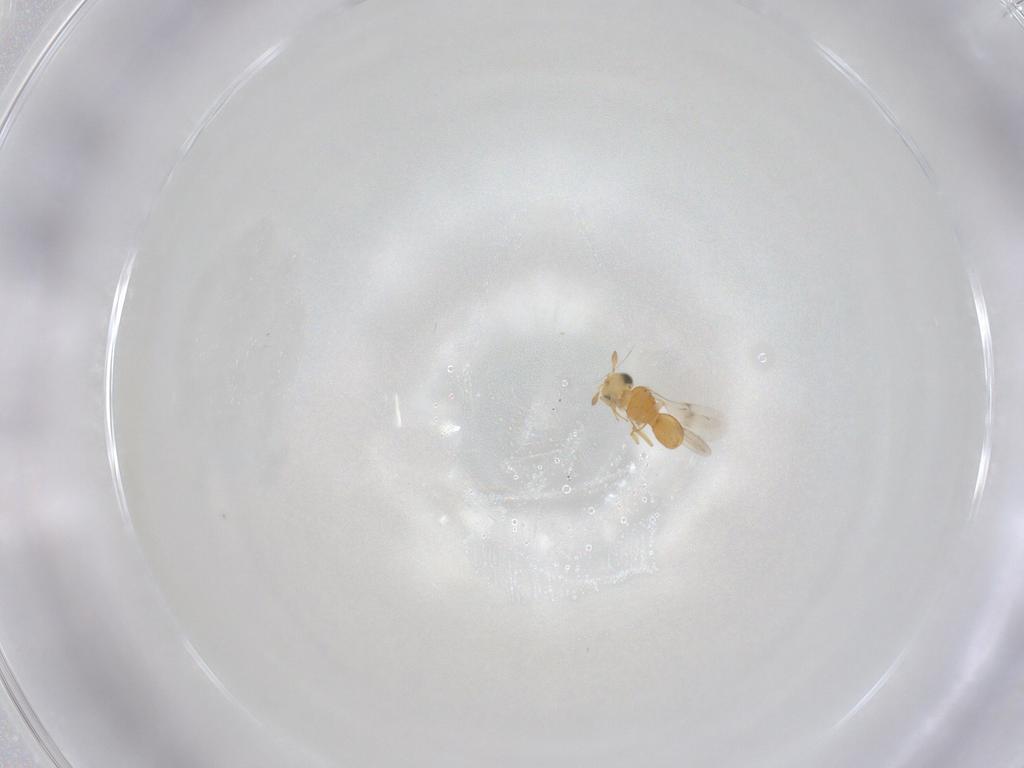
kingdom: Animalia
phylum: Arthropoda
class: Insecta
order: Hymenoptera
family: Scelionidae
